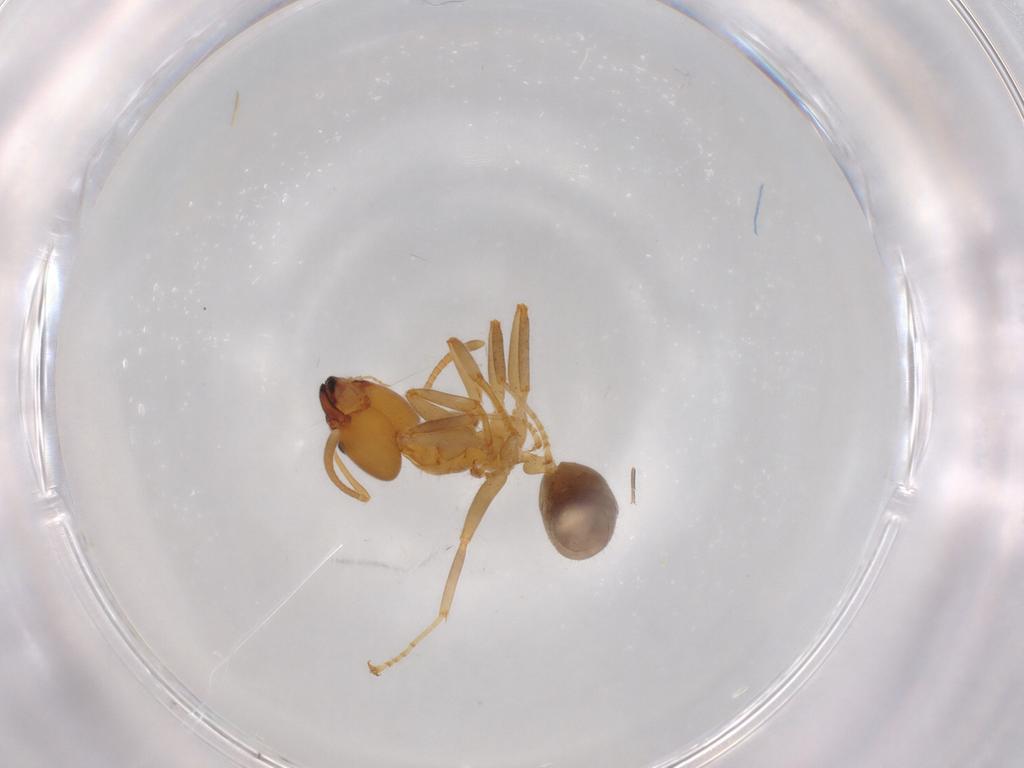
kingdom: Animalia
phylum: Arthropoda
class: Insecta
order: Hymenoptera
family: Formicidae
